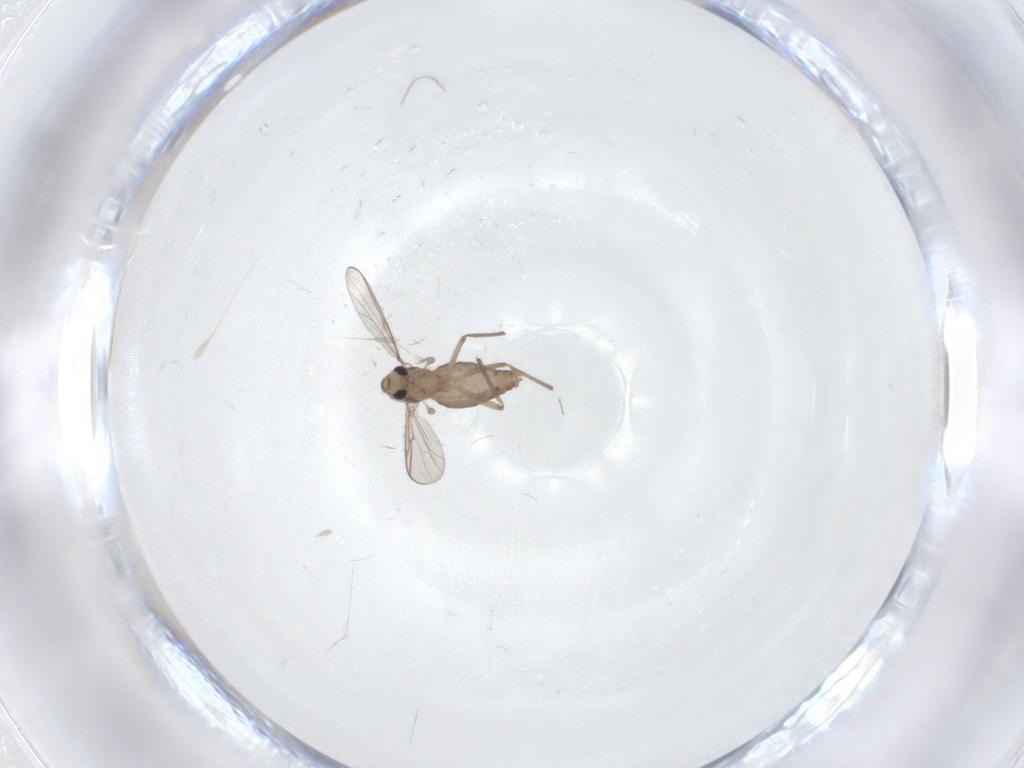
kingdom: Animalia
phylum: Arthropoda
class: Insecta
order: Diptera
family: Chironomidae
